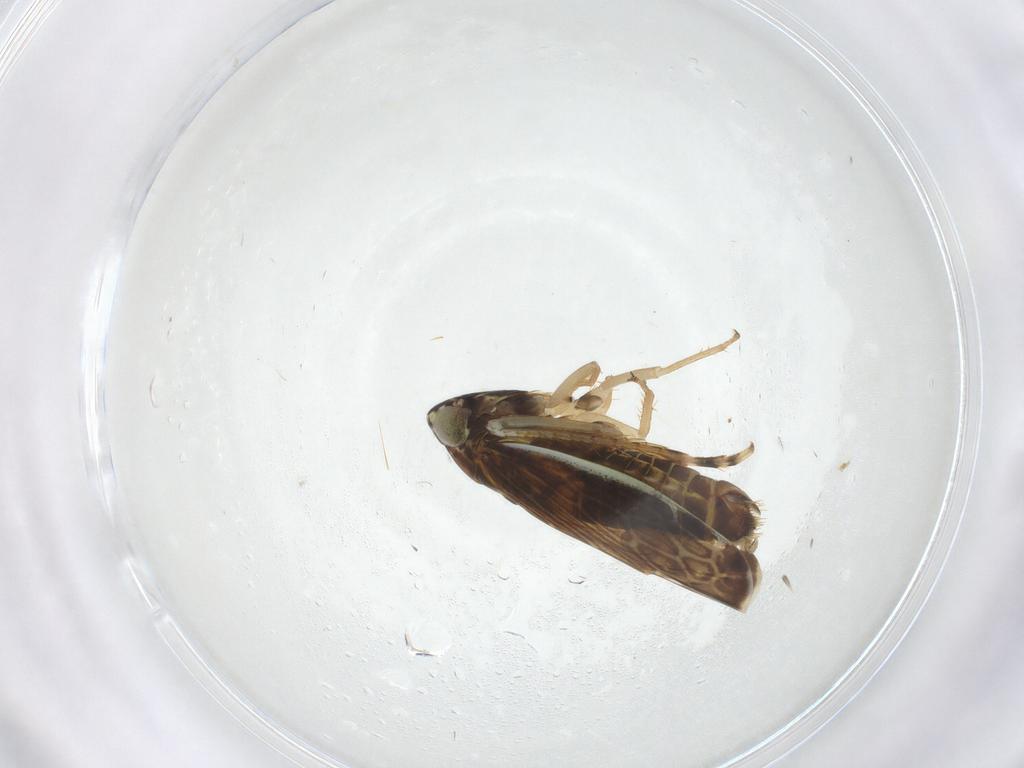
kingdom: Animalia
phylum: Arthropoda
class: Insecta
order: Hemiptera
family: Cicadellidae
